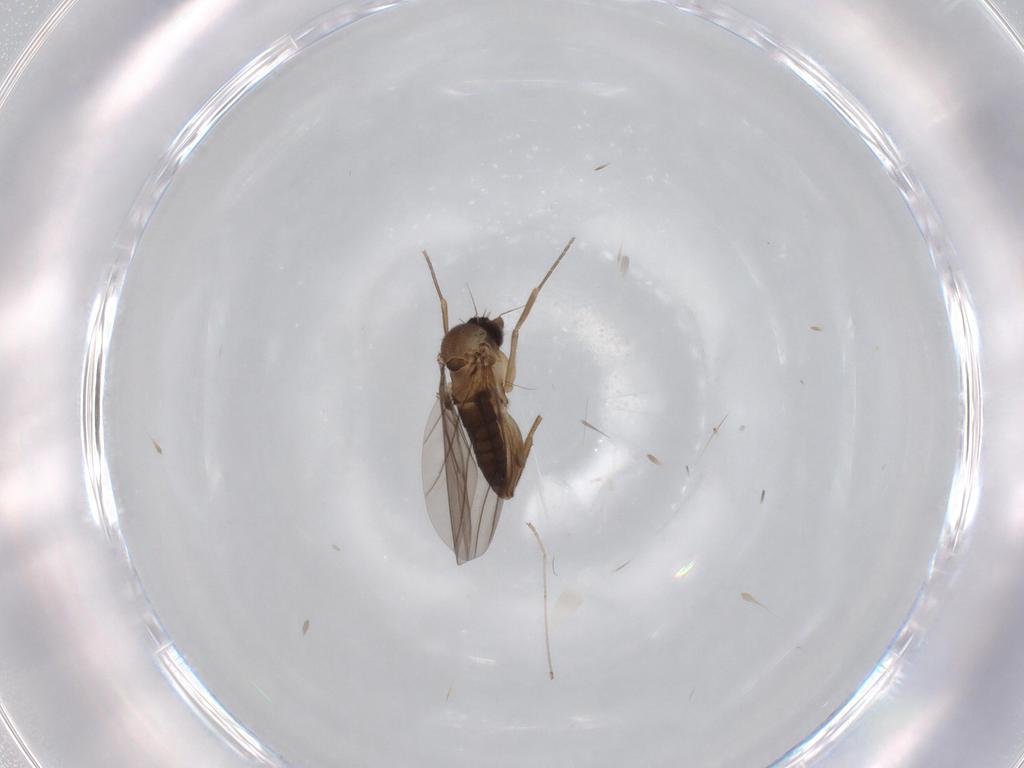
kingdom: Animalia
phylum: Arthropoda
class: Insecta
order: Diptera
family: Phoridae
